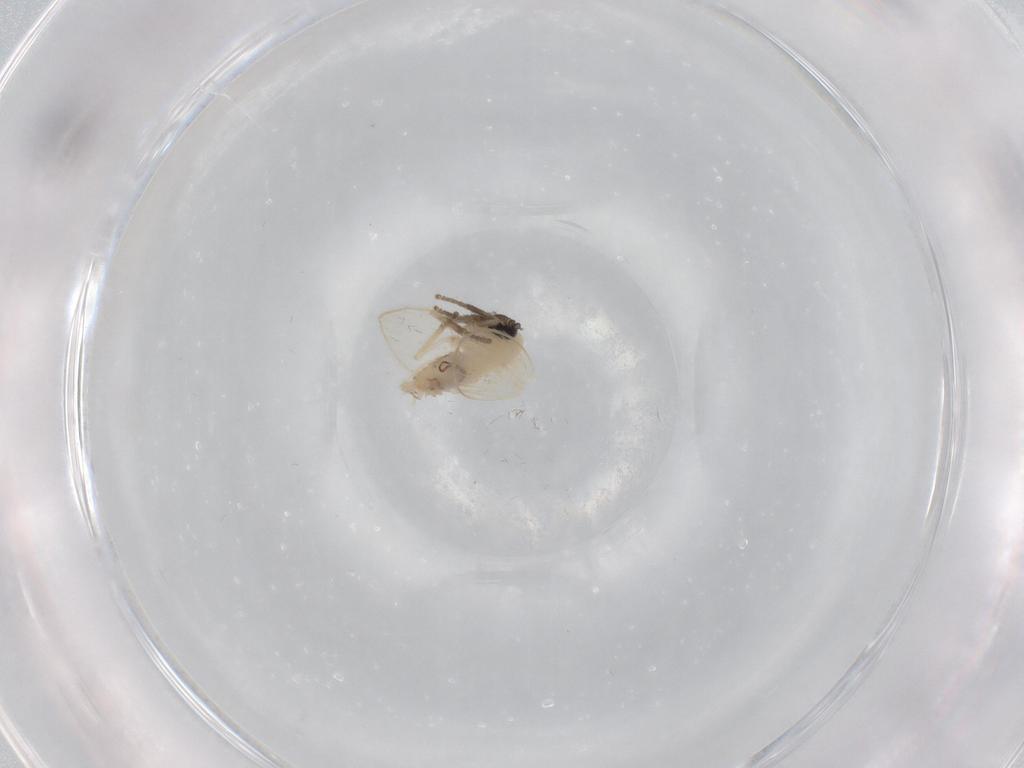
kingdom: Animalia
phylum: Arthropoda
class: Insecta
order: Diptera
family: Psychodidae
